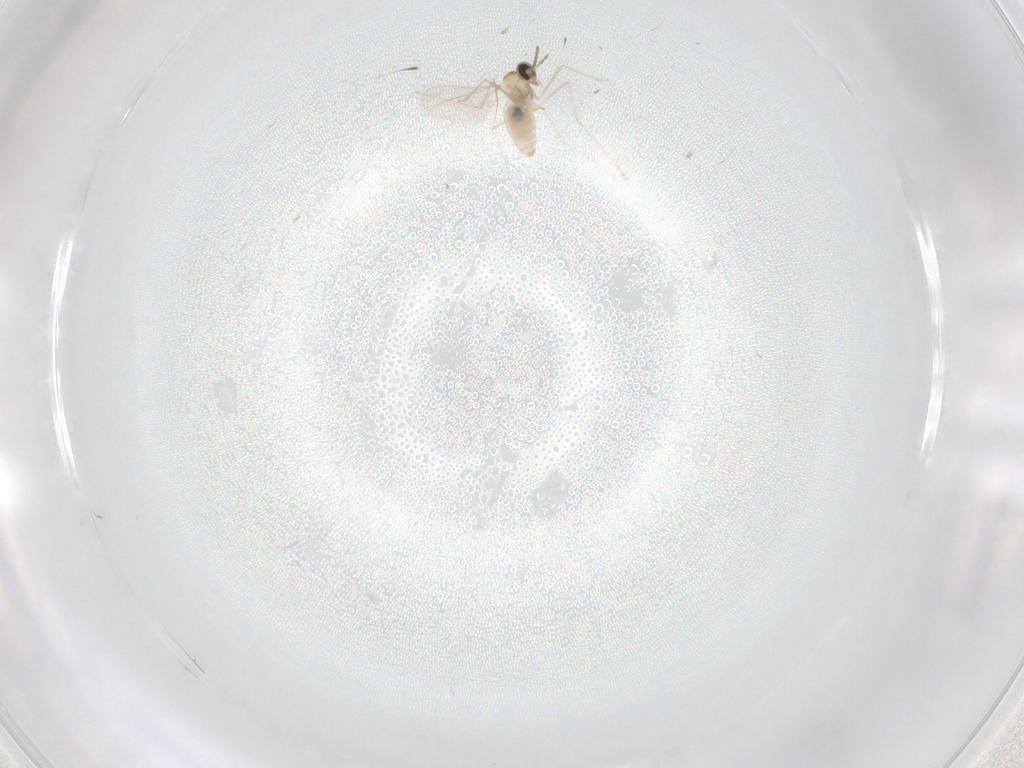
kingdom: Animalia
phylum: Arthropoda
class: Insecta
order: Diptera
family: Cecidomyiidae
